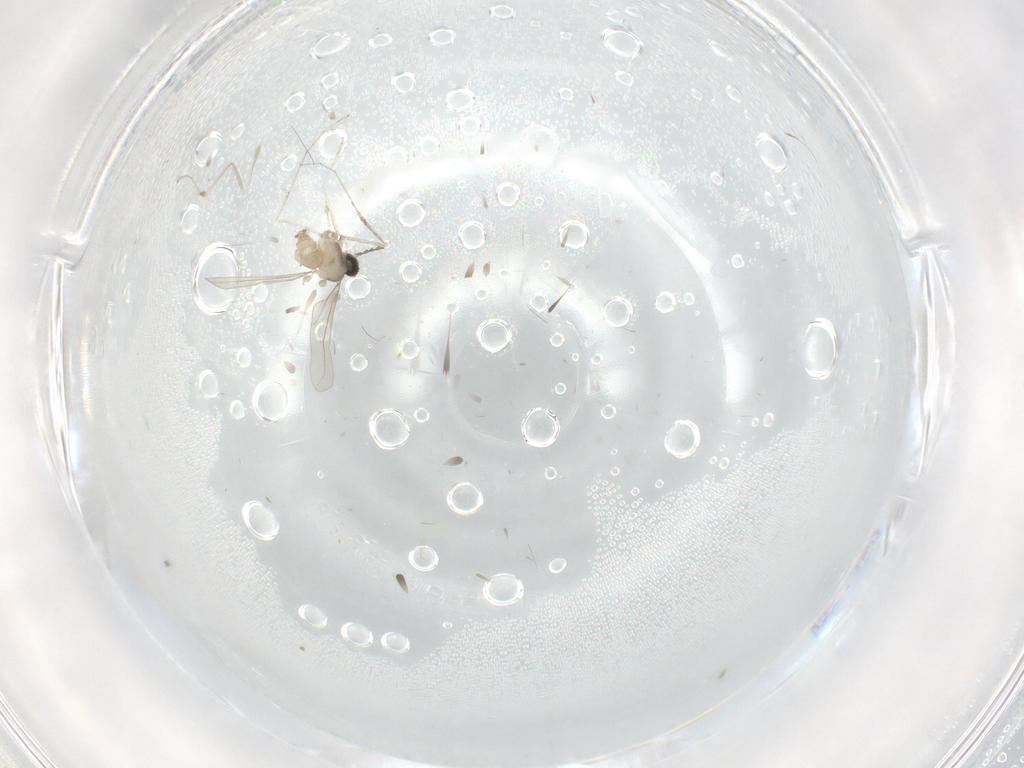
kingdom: Animalia
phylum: Arthropoda
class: Insecta
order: Diptera
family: Cecidomyiidae
